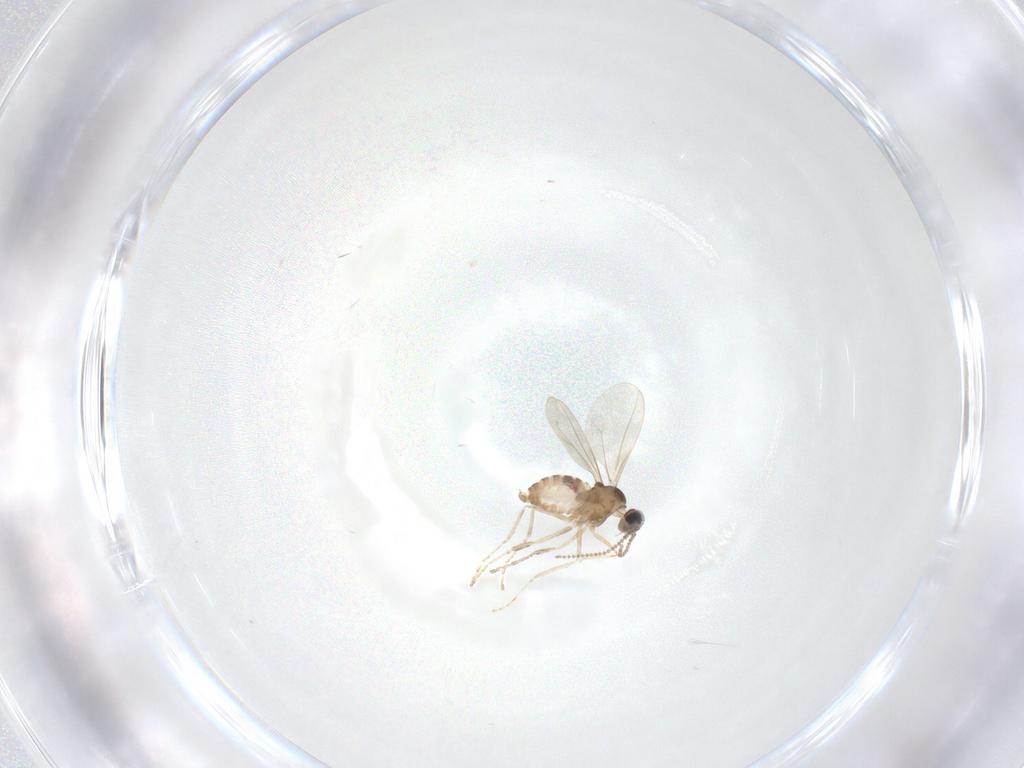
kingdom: Animalia
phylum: Arthropoda
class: Insecta
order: Diptera
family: Cecidomyiidae
